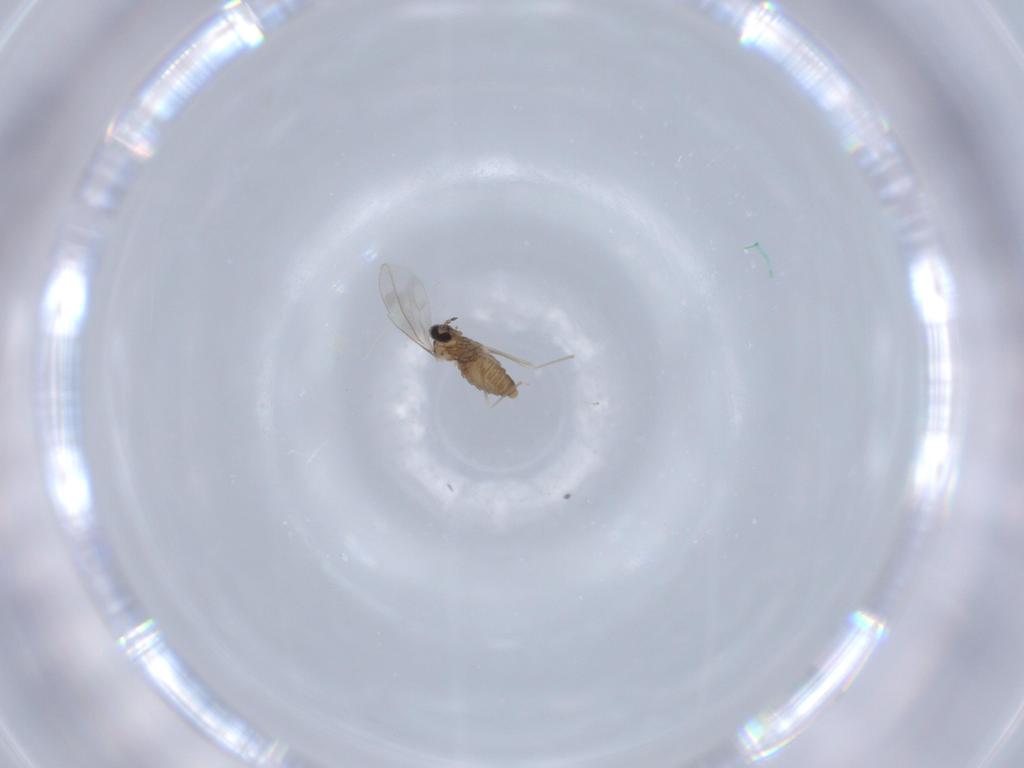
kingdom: Animalia
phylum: Arthropoda
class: Insecta
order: Diptera
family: Cecidomyiidae
